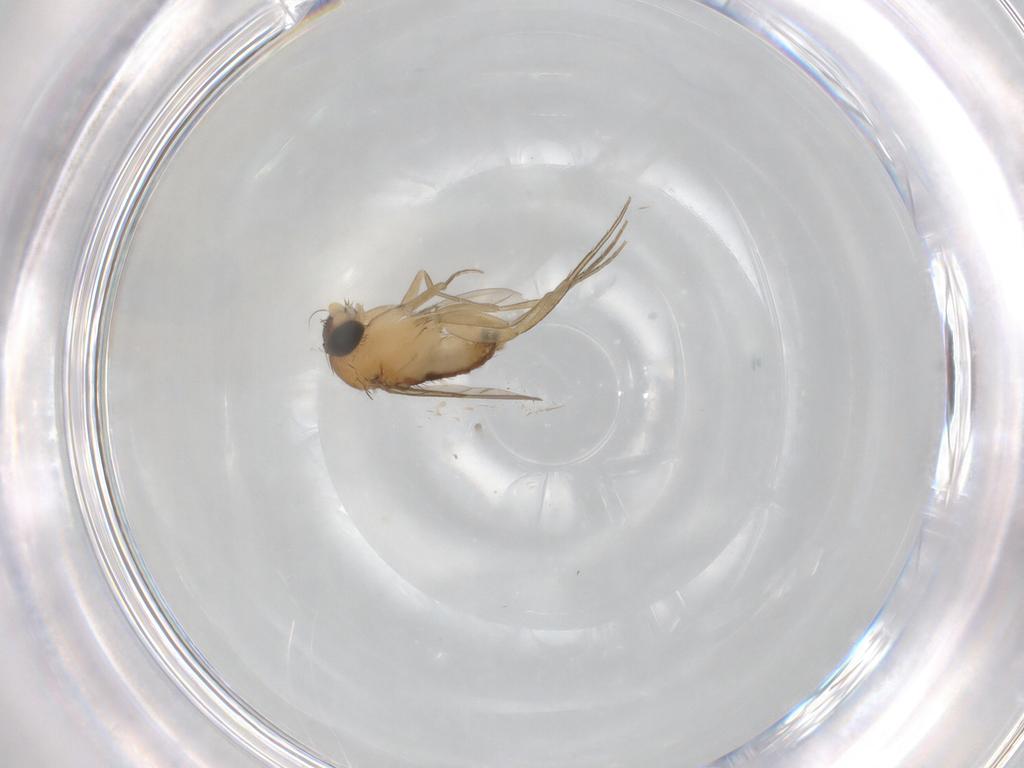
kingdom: Animalia
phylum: Arthropoda
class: Insecta
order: Diptera
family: Phoridae
